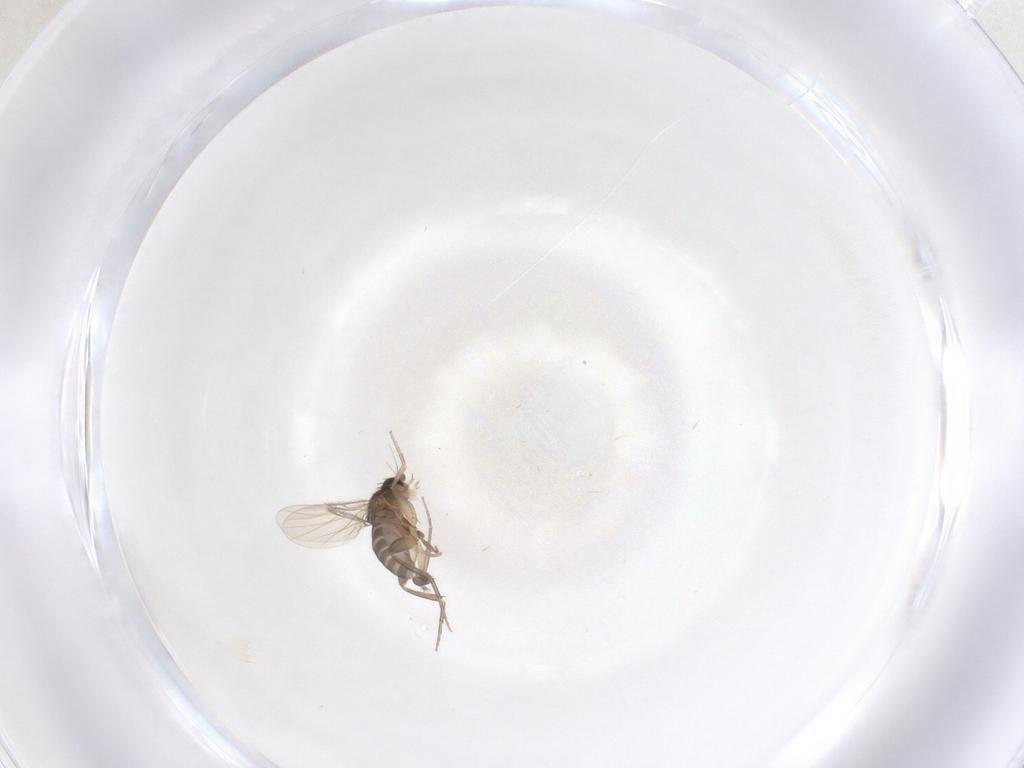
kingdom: Animalia
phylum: Arthropoda
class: Insecta
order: Diptera
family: Phoridae
